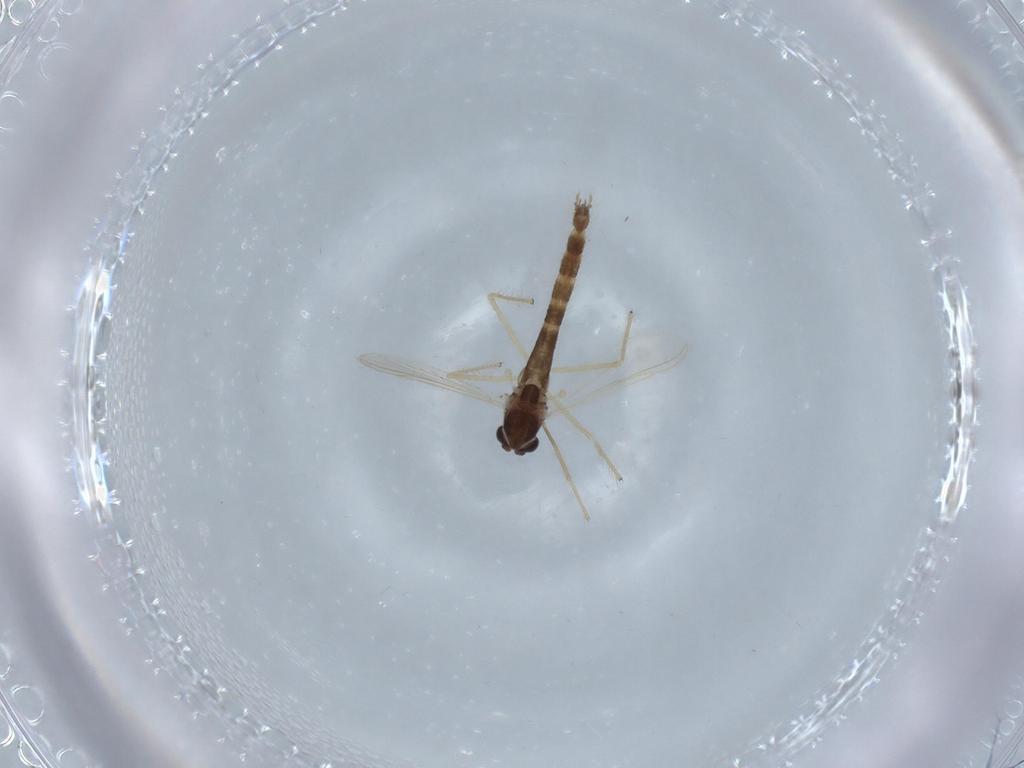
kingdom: Animalia
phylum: Arthropoda
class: Insecta
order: Diptera
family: Chironomidae
